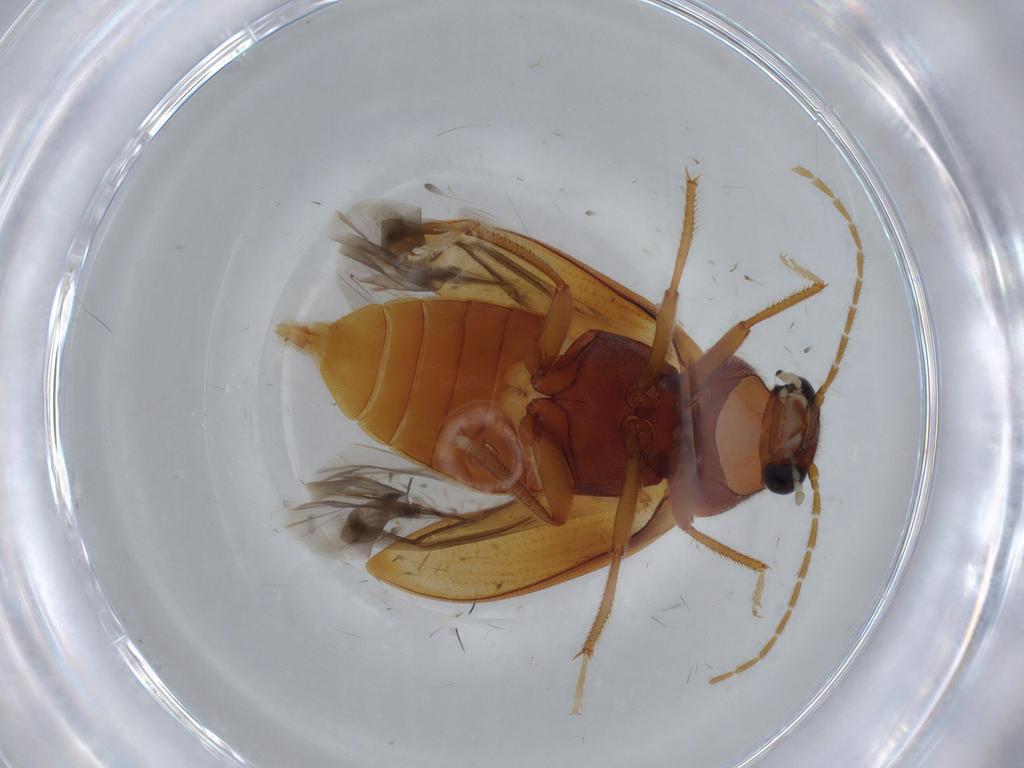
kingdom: Animalia
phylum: Arthropoda
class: Insecta
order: Coleoptera
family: Ptilodactylidae
